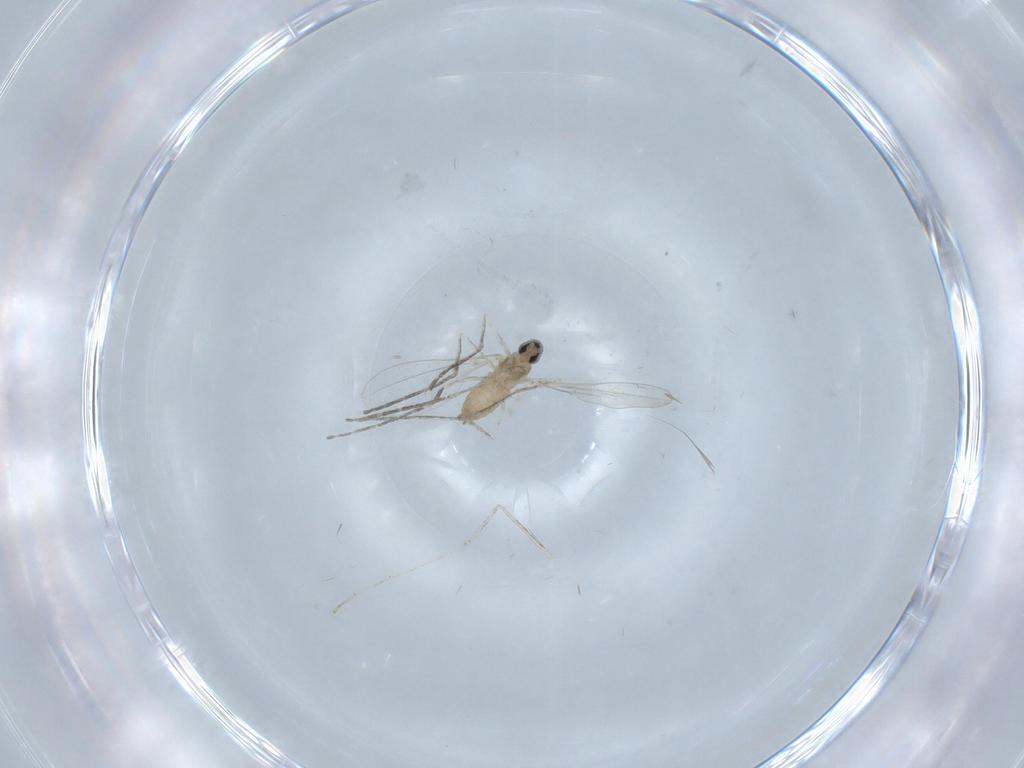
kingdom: Animalia
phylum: Arthropoda
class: Insecta
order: Diptera
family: Cecidomyiidae
